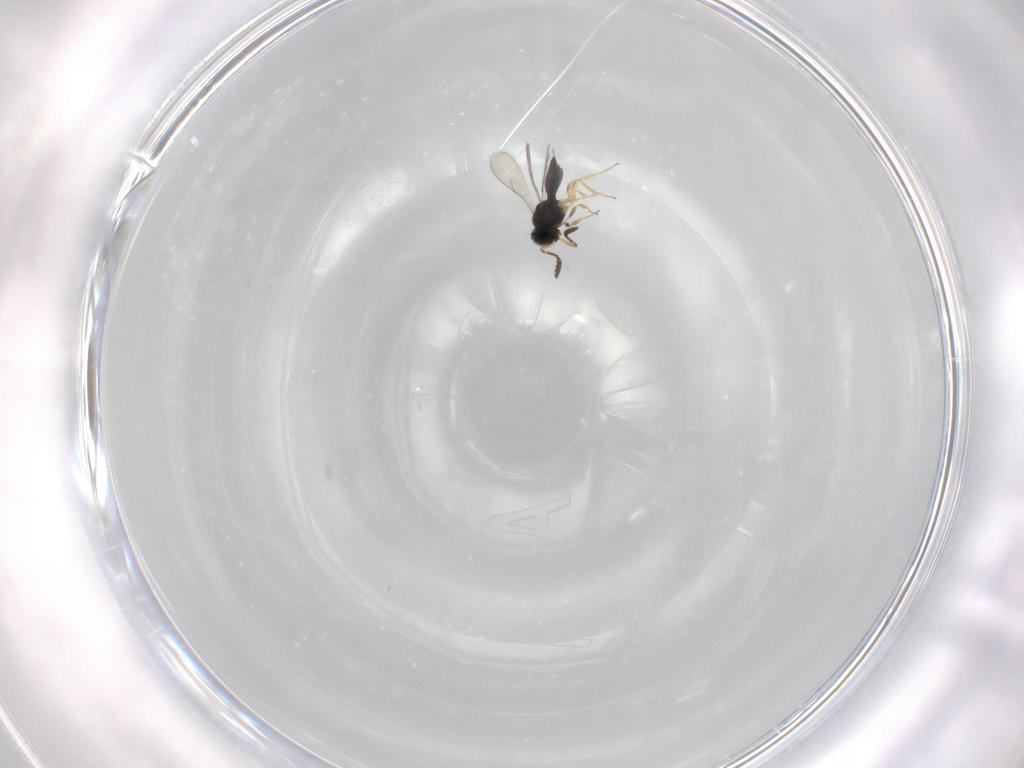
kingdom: Animalia
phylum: Arthropoda
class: Insecta
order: Hymenoptera
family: Scelionidae
